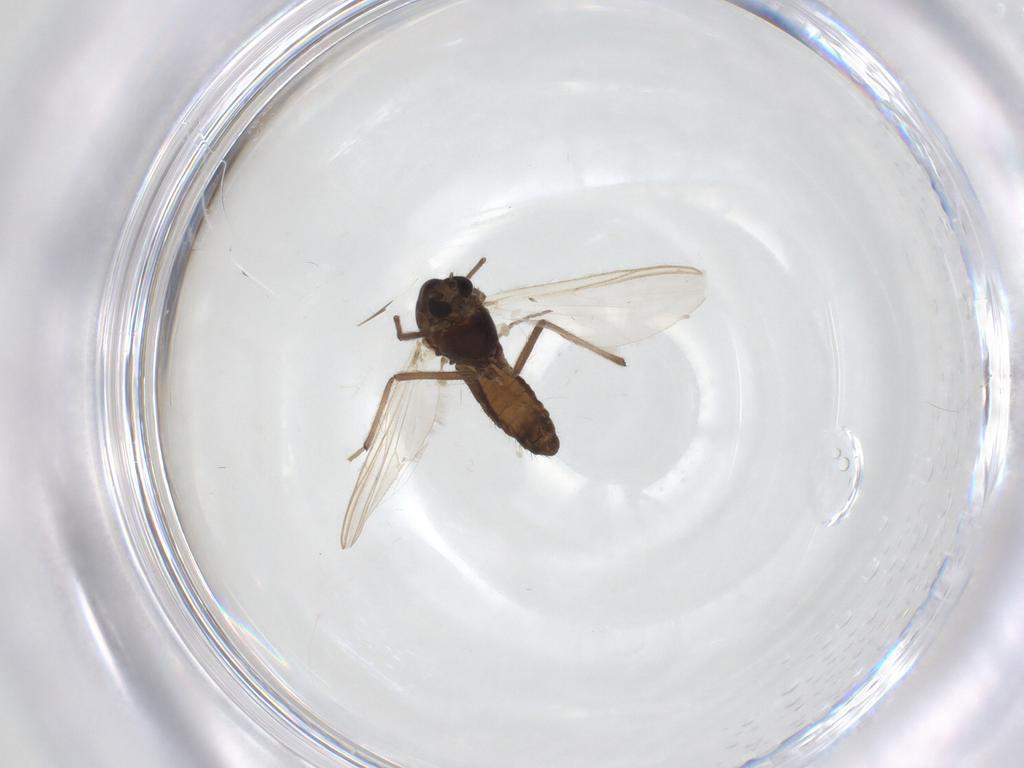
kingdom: Animalia
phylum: Arthropoda
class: Insecta
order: Diptera
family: Chironomidae
